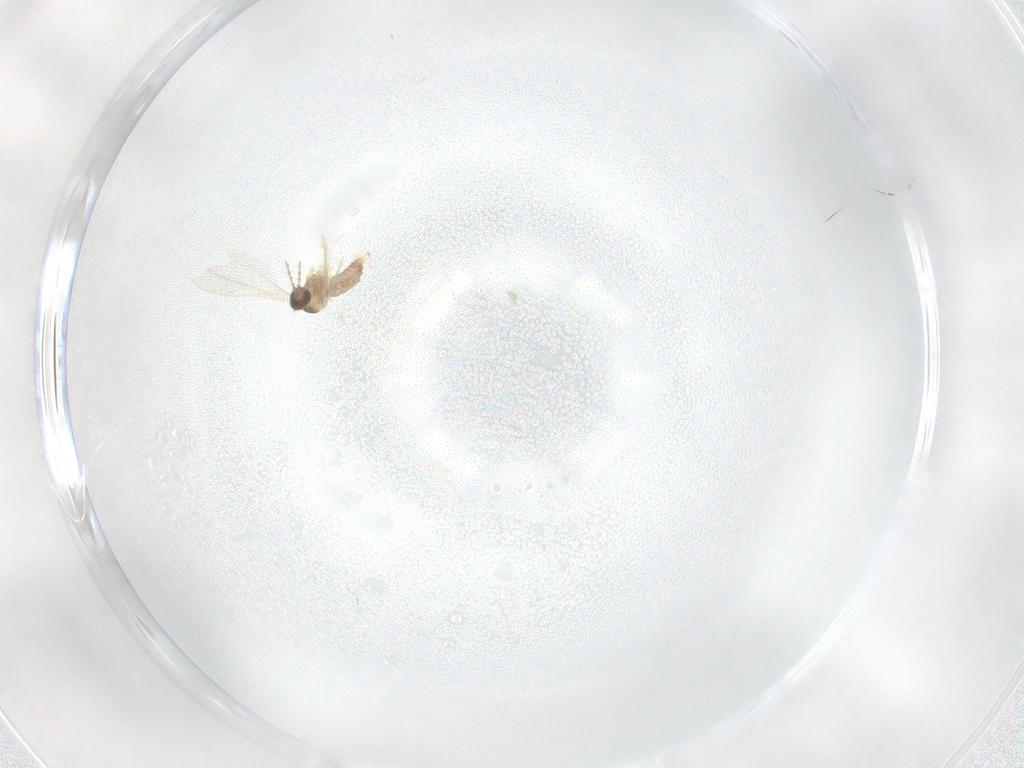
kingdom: Animalia
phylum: Arthropoda
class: Insecta
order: Diptera
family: Cecidomyiidae
